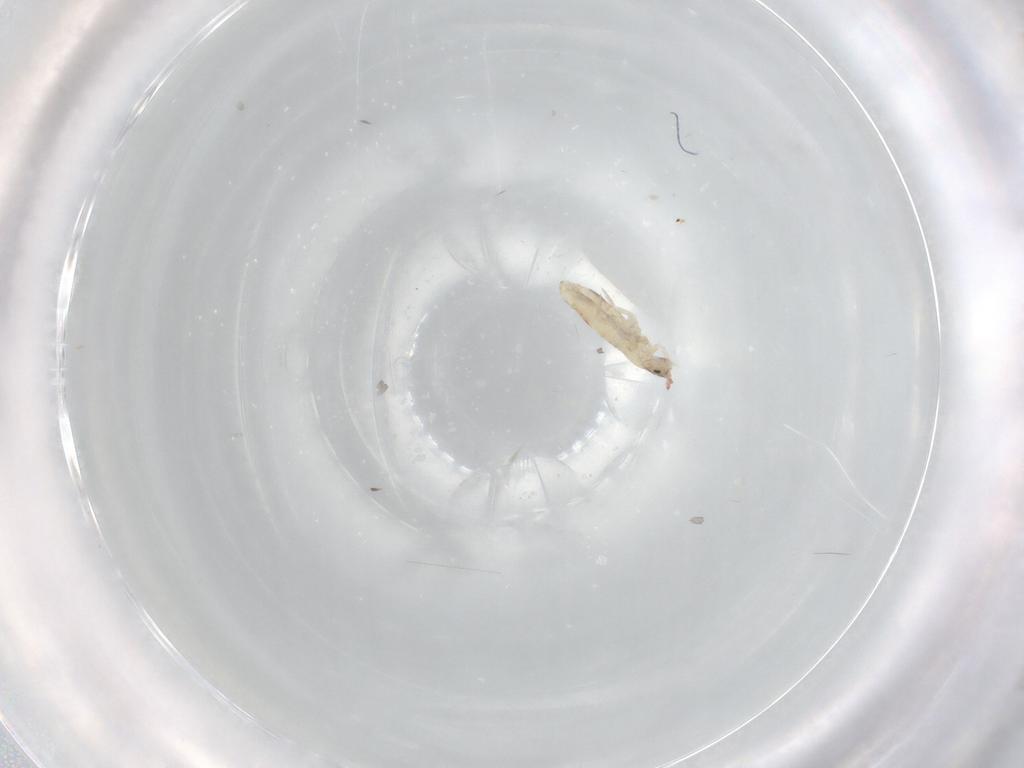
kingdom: Animalia
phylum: Arthropoda
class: Collembola
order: Entomobryomorpha
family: Entomobryidae
